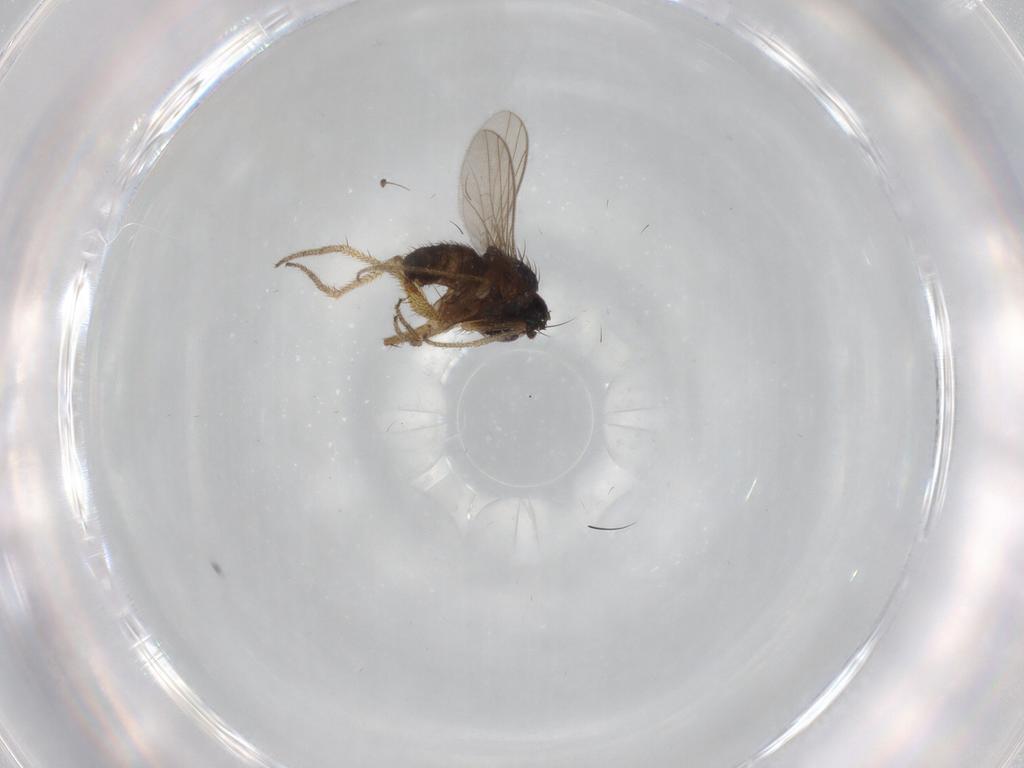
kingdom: Animalia
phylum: Arthropoda
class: Insecta
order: Diptera
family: Dolichopodidae
